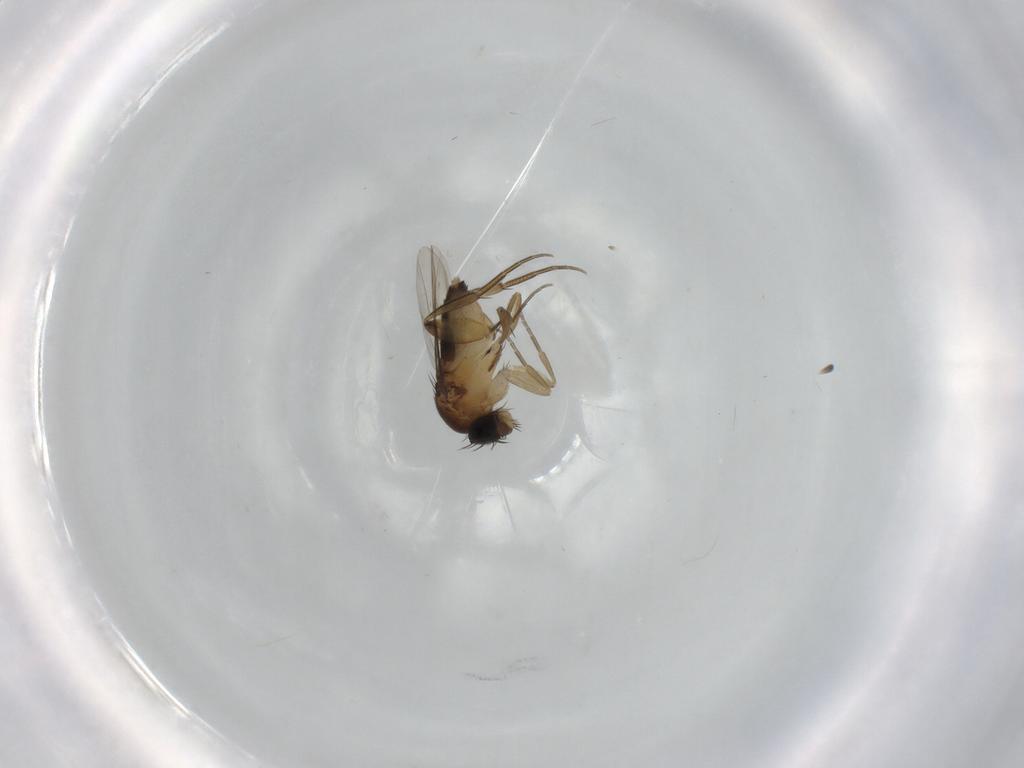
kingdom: Animalia
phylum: Arthropoda
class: Insecta
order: Diptera
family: Phoridae
